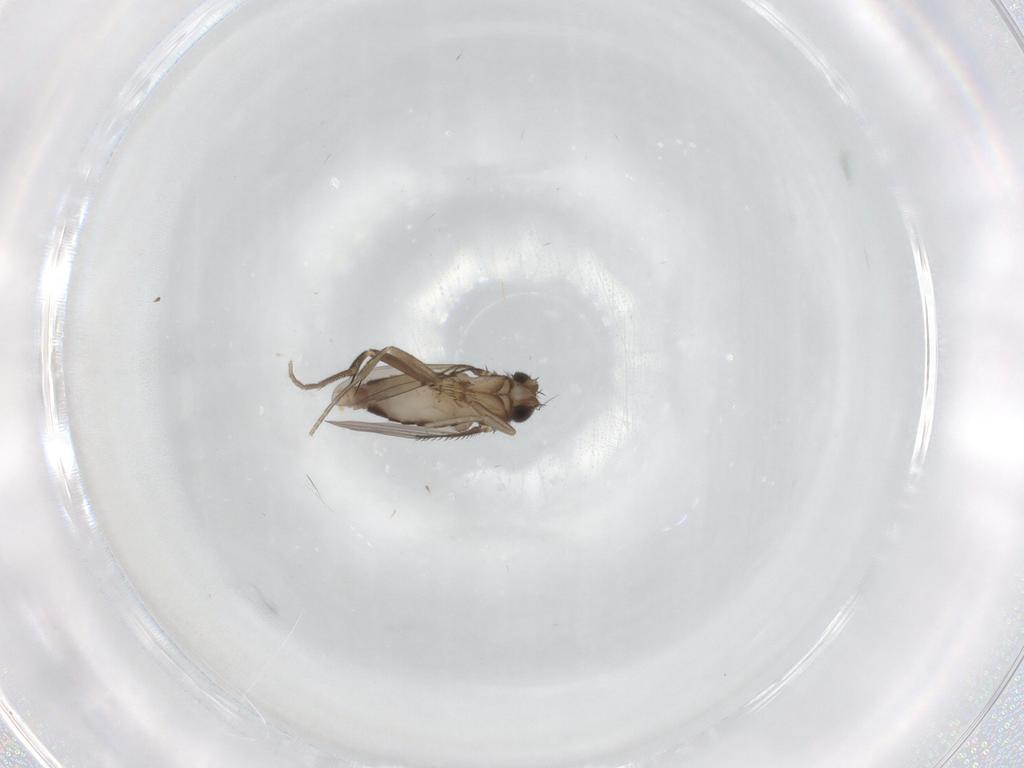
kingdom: Animalia
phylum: Arthropoda
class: Insecta
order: Diptera
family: Phoridae
